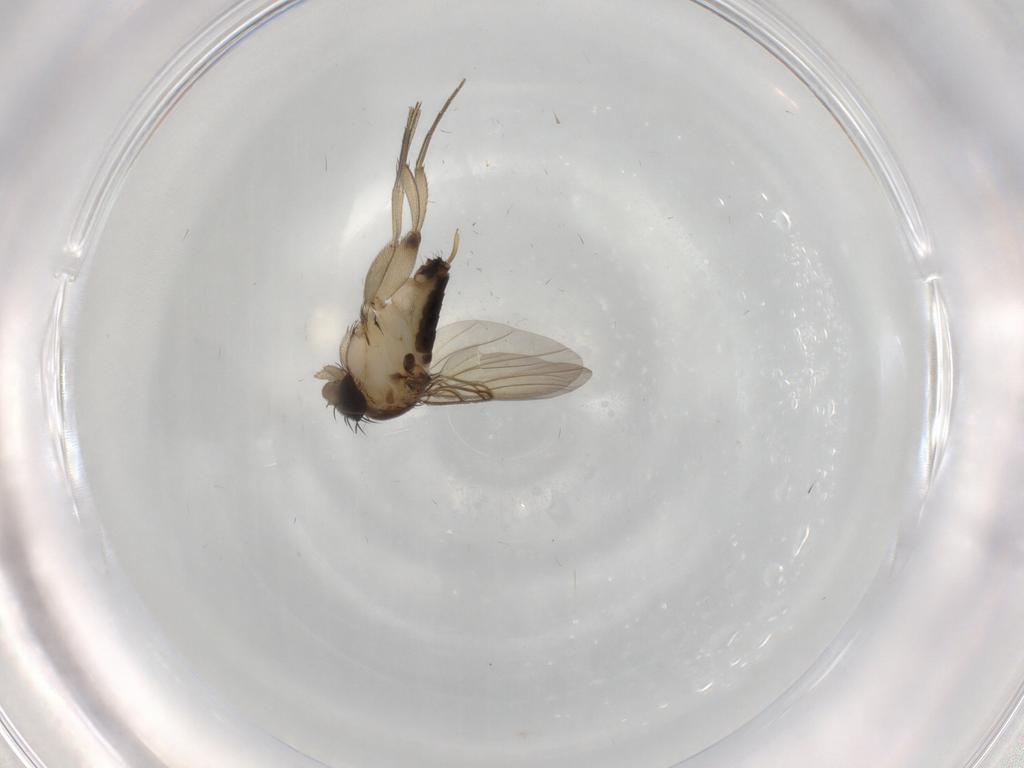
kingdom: Animalia
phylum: Arthropoda
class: Insecta
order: Diptera
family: Phoridae
